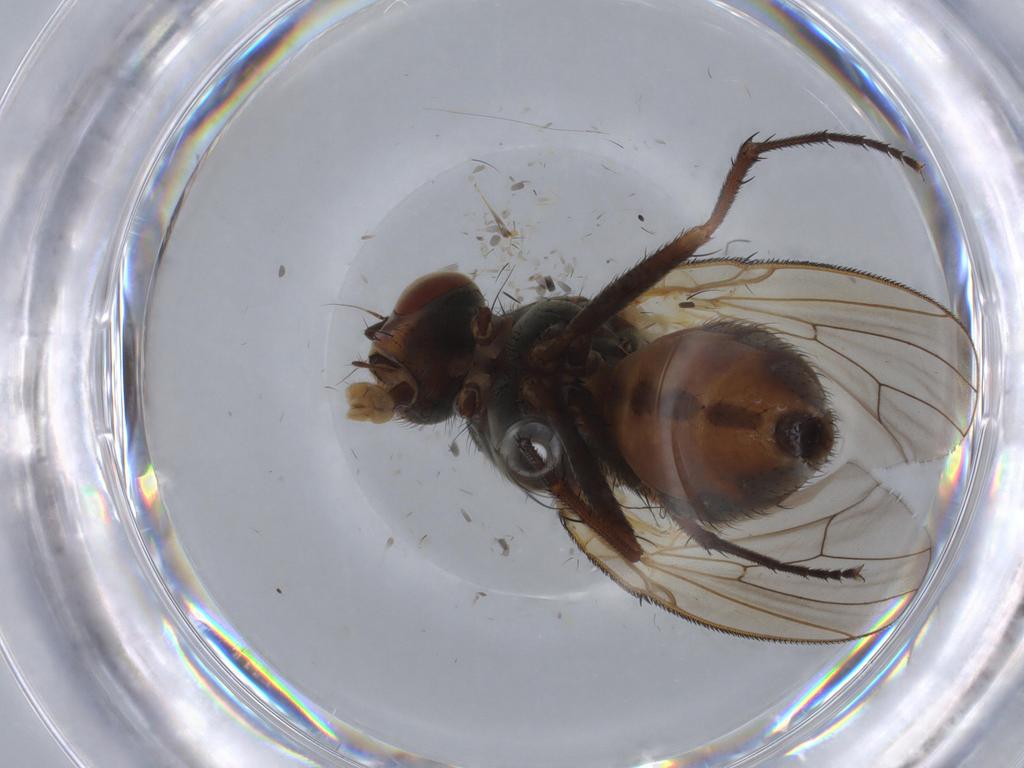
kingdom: Animalia
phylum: Arthropoda
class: Insecta
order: Diptera
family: Anthomyiidae
